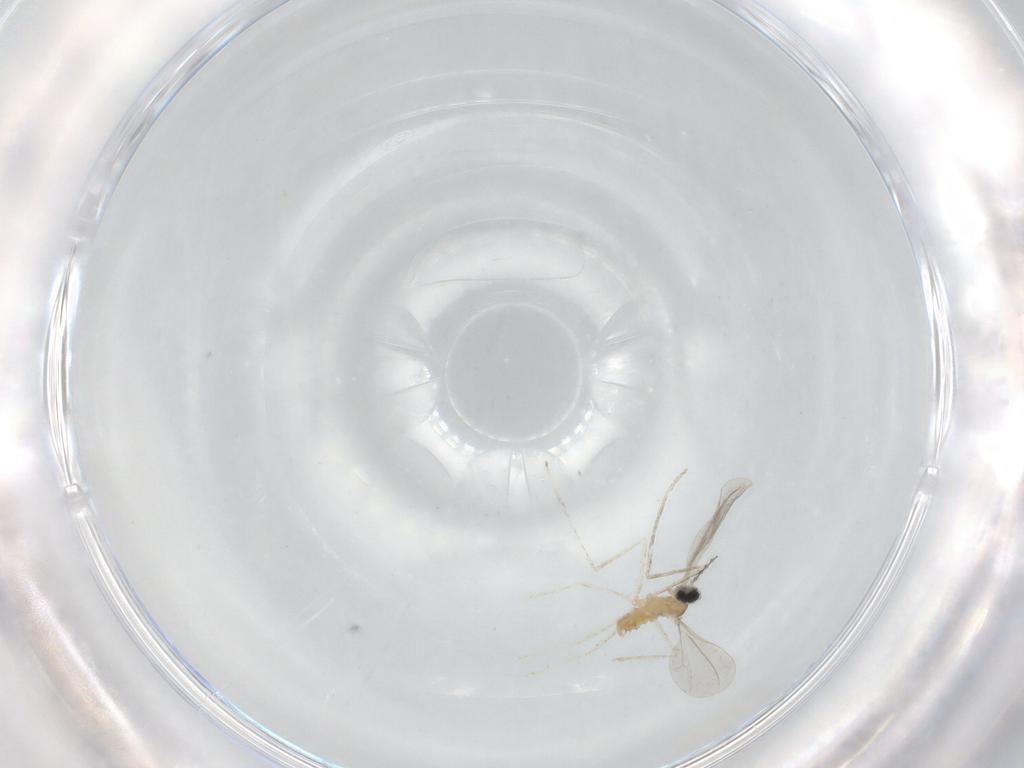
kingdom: Animalia
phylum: Arthropoda
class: Insecta
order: Diptera
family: Cecidomyiidae
